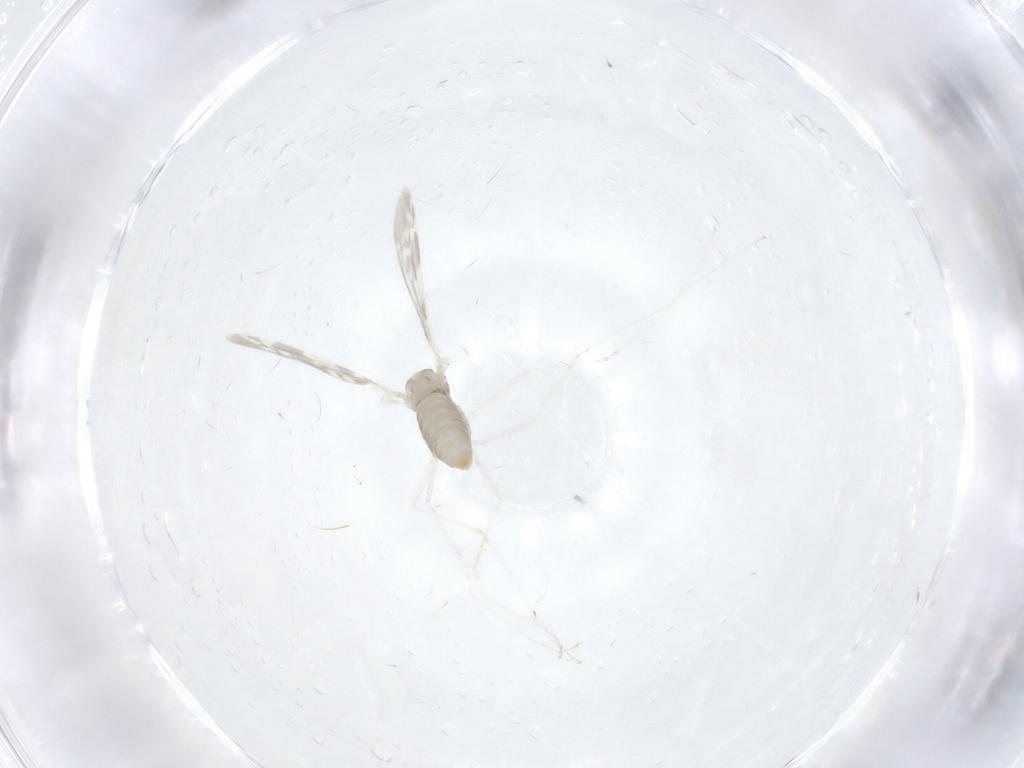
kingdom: Animalia
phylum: Arthropoda
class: Insecta
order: Diptera
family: Cecidomyiidae
